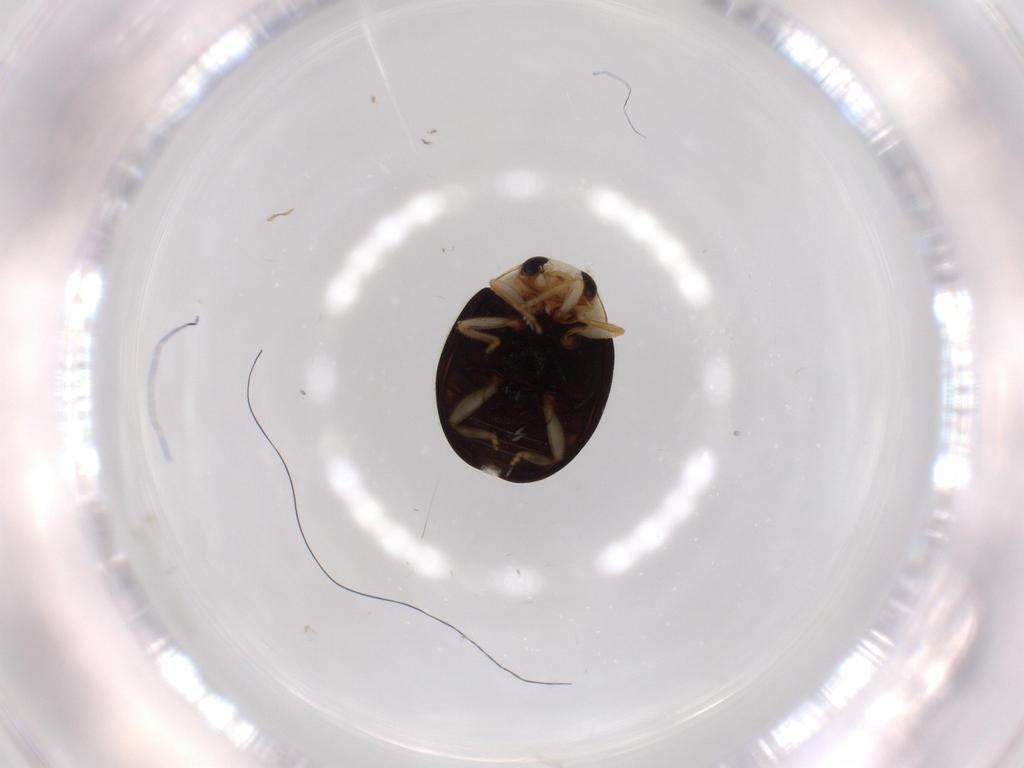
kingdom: Animalia
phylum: Arthropoda
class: Insecta
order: Coleoptera
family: Coccinellidae
